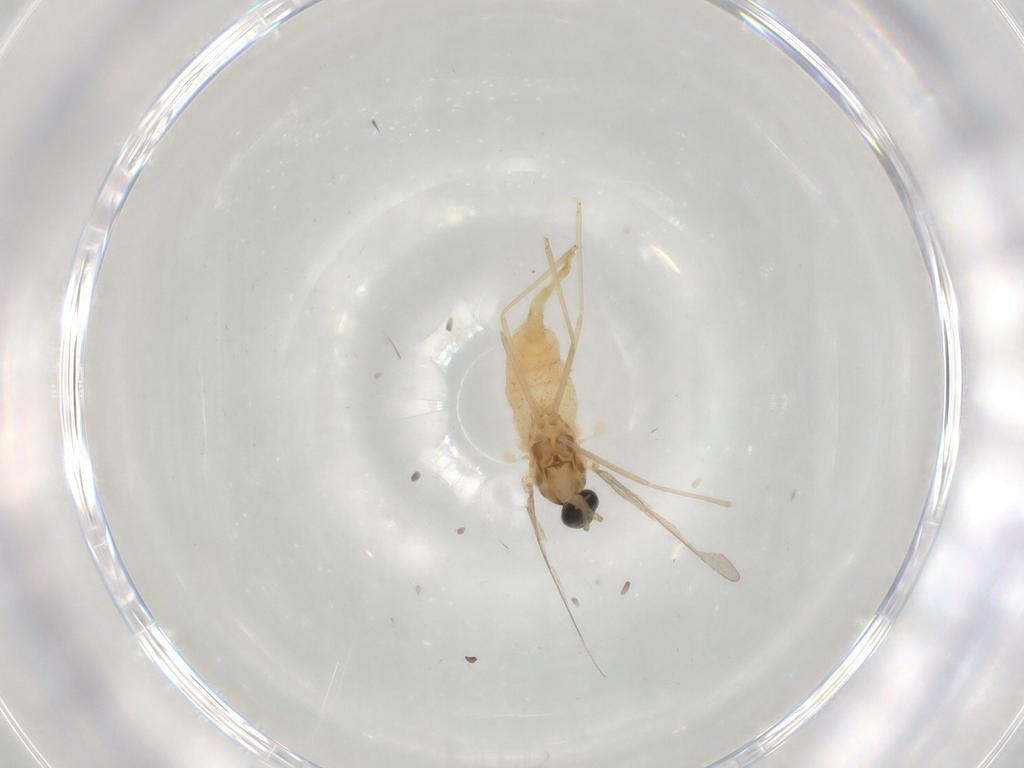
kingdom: Animalia
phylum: Arthropoda
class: Insecta
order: Diptera
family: Cecidomyiidae
